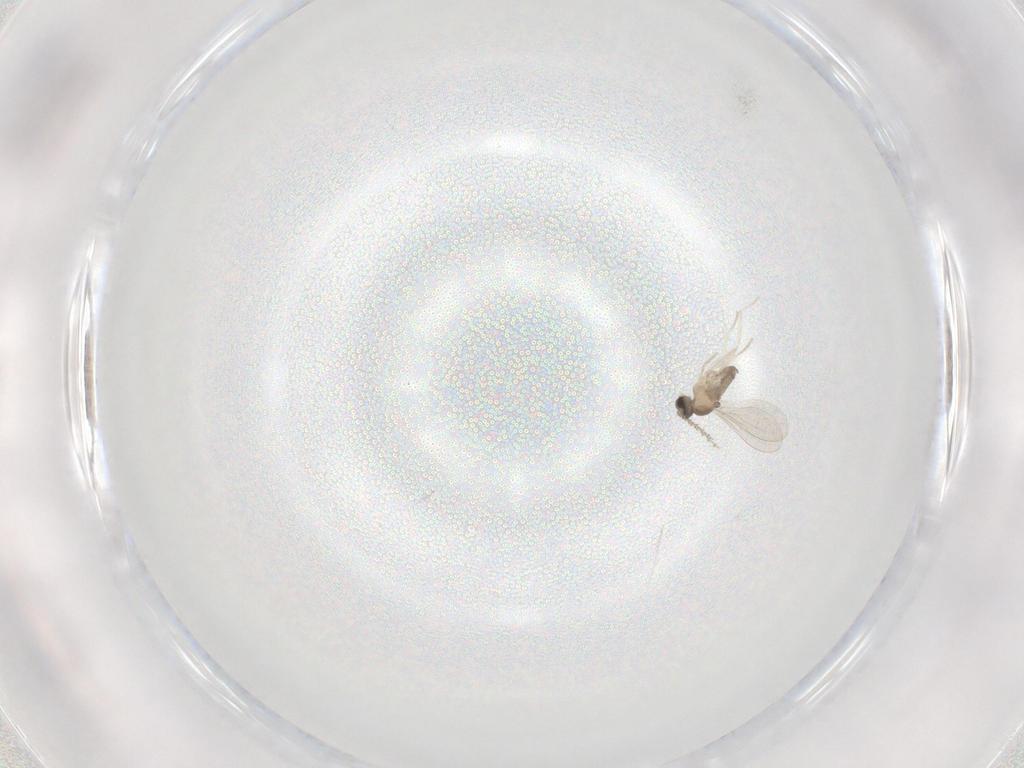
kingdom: Animalia
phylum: Arthropoda
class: Insecta
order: Diptera
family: Cecidomyiidae
